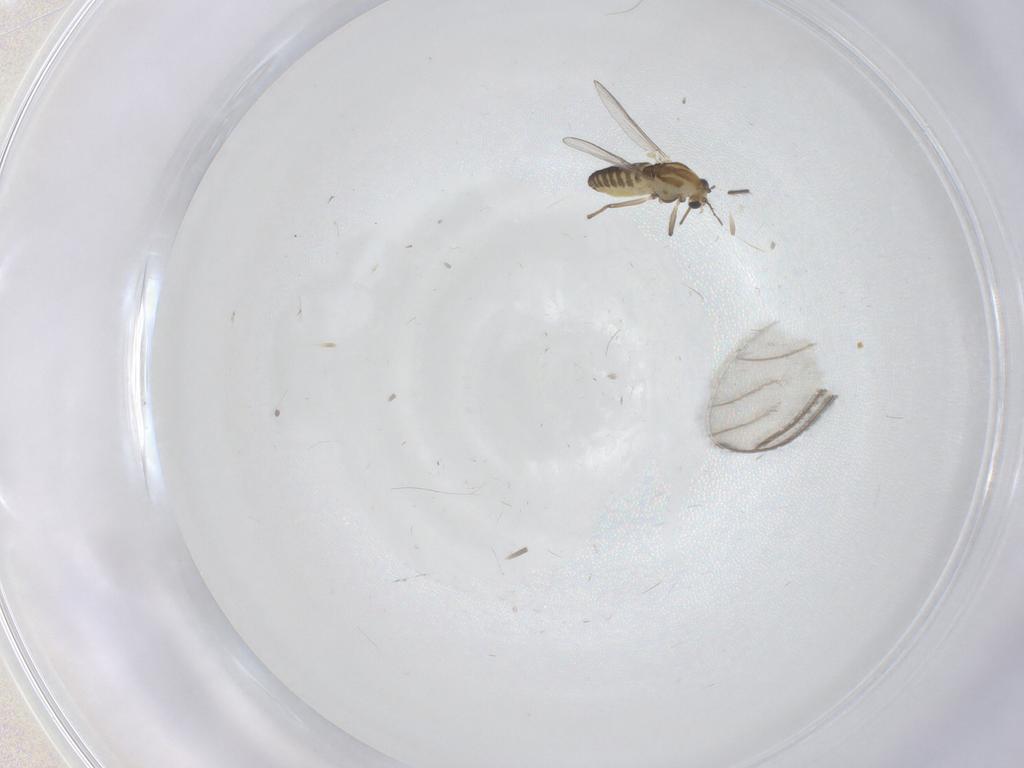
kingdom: Animalia
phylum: Arthropoda
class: Insecta
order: Diptera
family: Chironomidae
